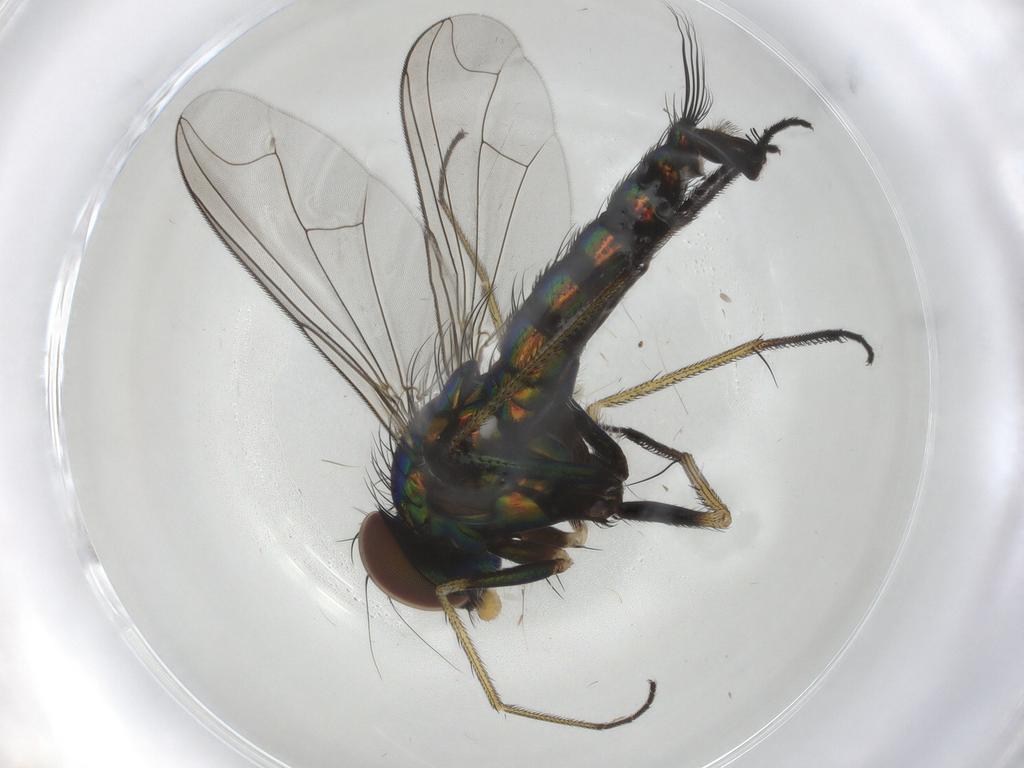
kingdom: Animalia
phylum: Arthropoda
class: Insecta
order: Diptera
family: Dolichopodidae
